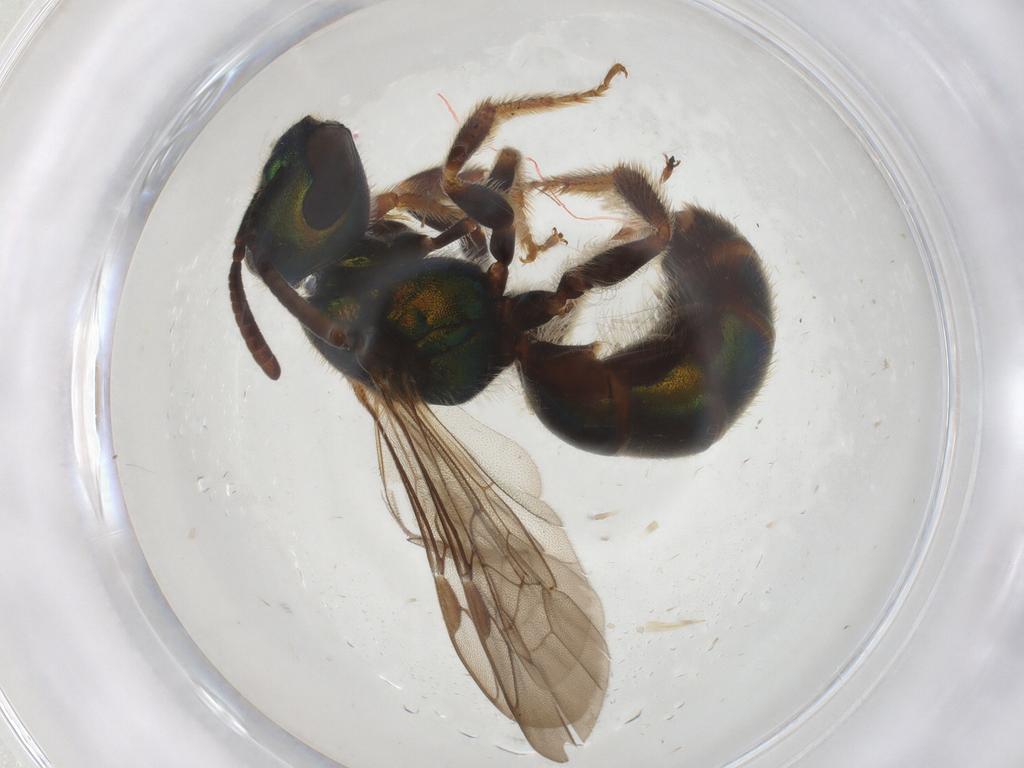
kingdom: Animalia
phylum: Arthropoda
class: Insecta
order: Hymenoptera
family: Halictidae
